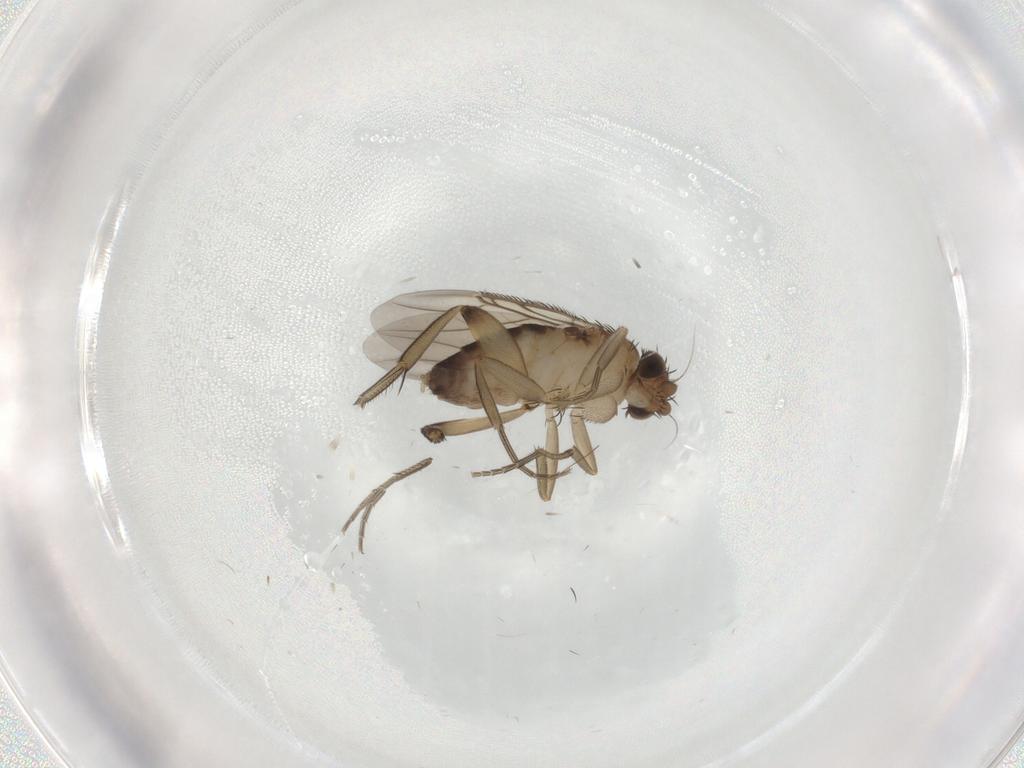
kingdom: Animalia
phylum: Arthropoda
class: Insecta
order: Diptera
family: Phoridae
